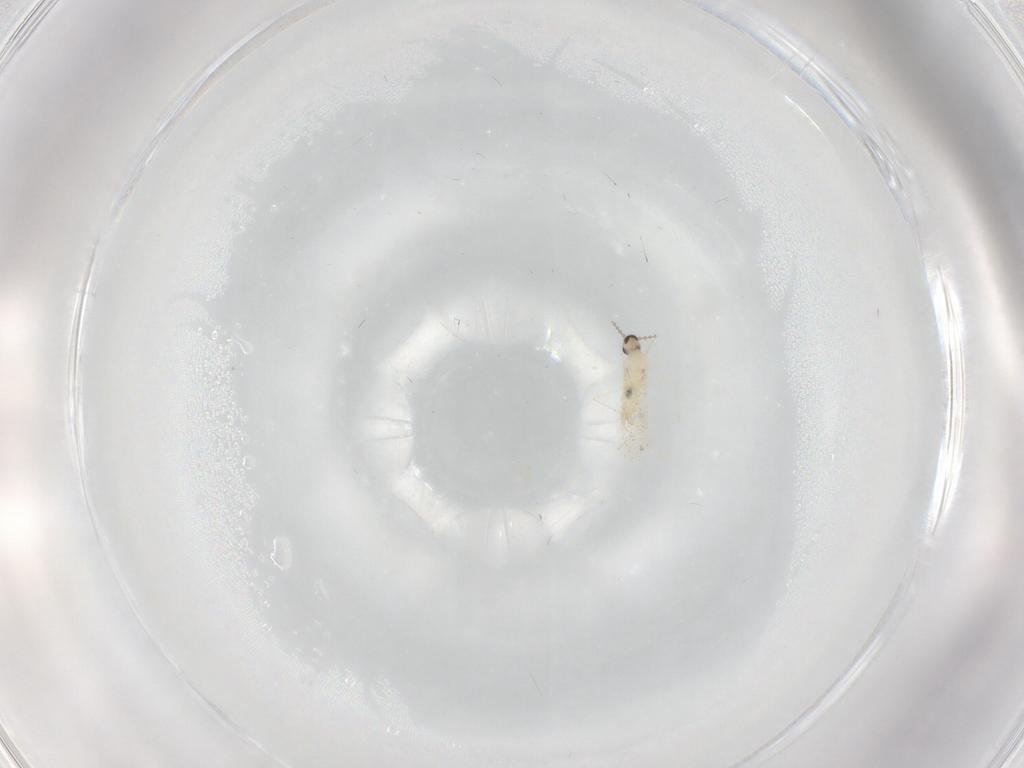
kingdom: Animalia
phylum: Arthropoda
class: Insecta
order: Diptera
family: Cecidomyiidae
